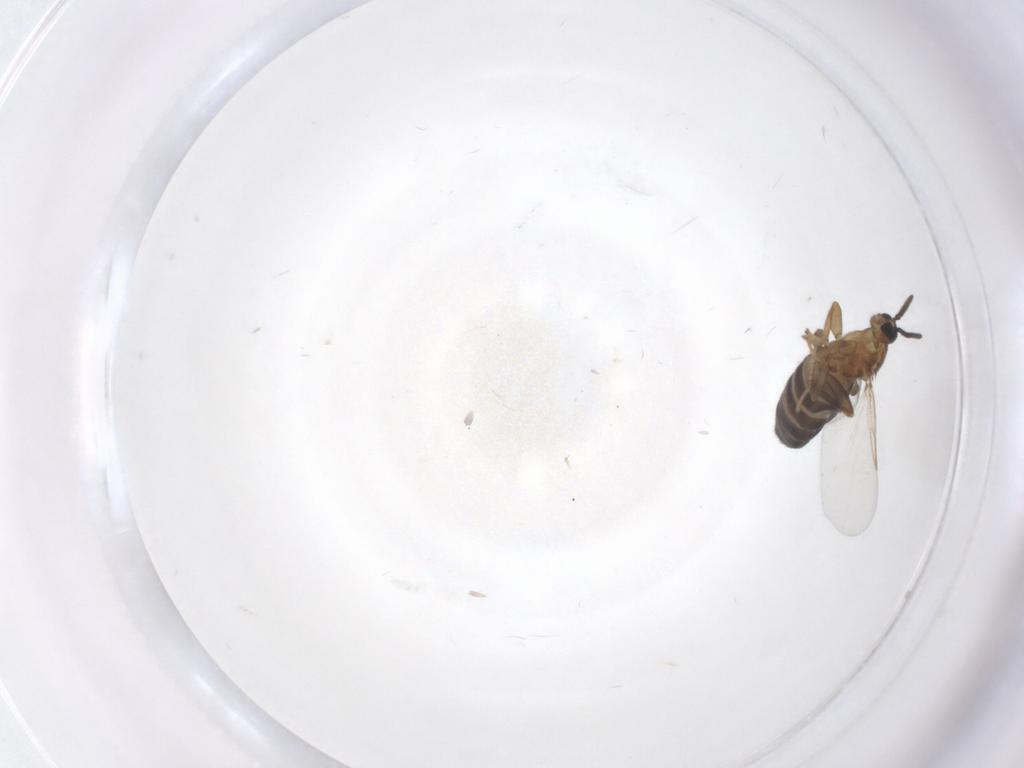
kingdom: Animalia
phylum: Arthropoda
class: Insecta
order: Diptera
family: Scatopsidae
